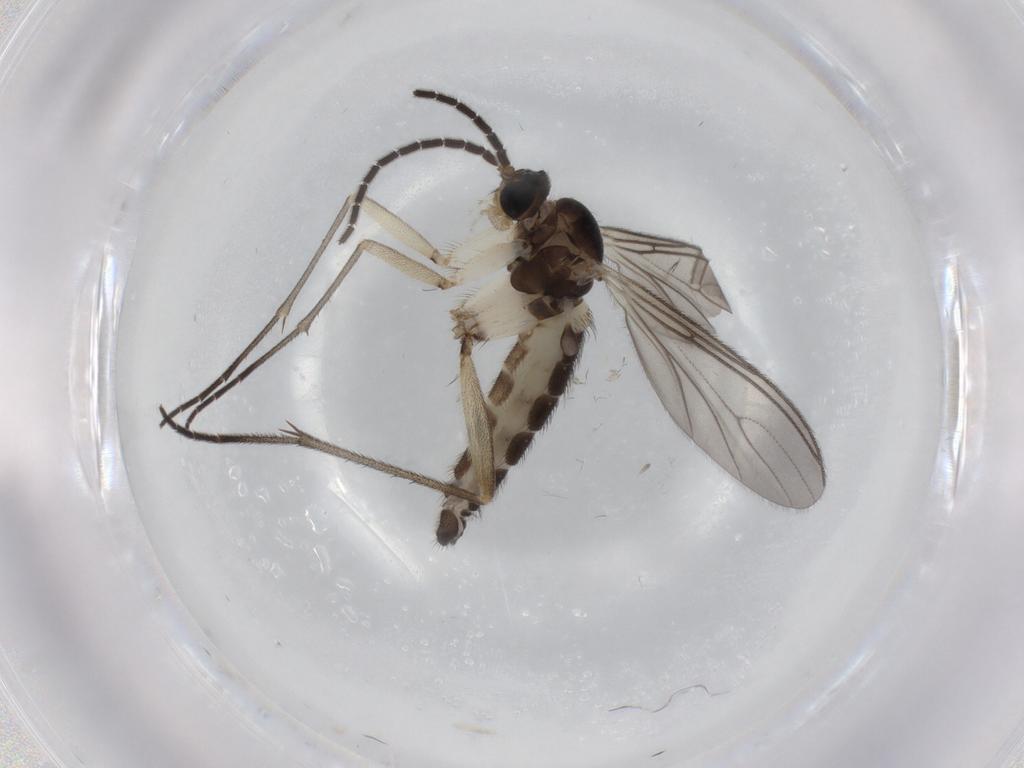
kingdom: Animalia
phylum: Arthropoda
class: Insecta
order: Diptera
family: Sciaridae
